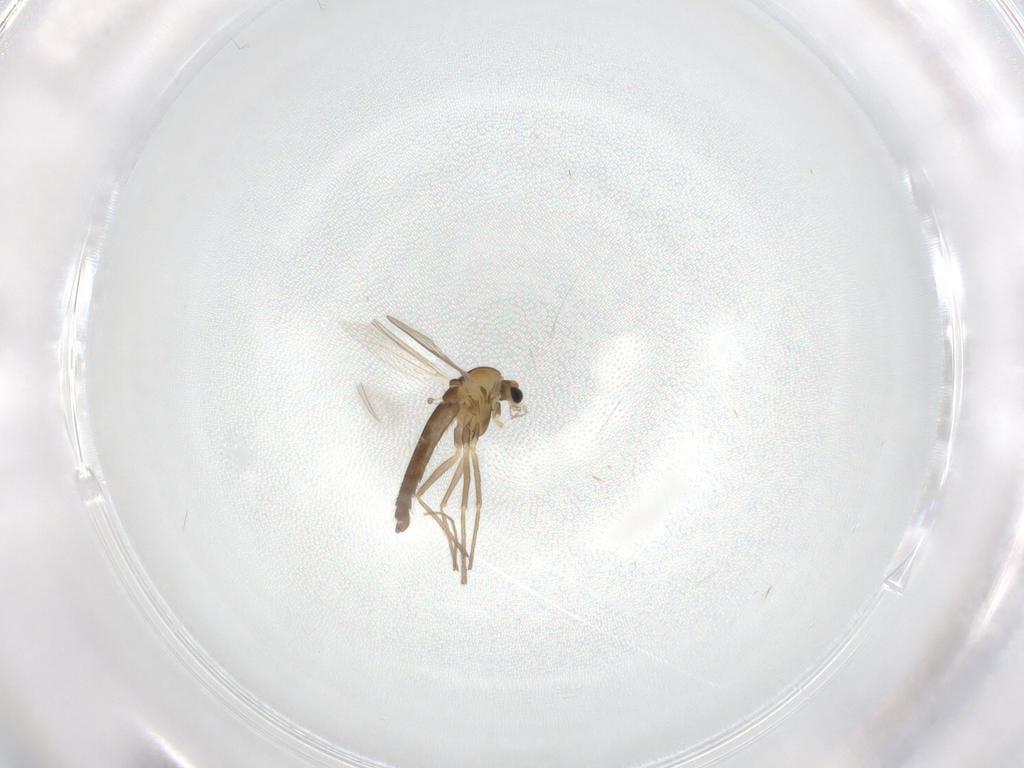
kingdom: Animalia
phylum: Arthropoda
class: Insecta
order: Diptera
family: Chironomidae
